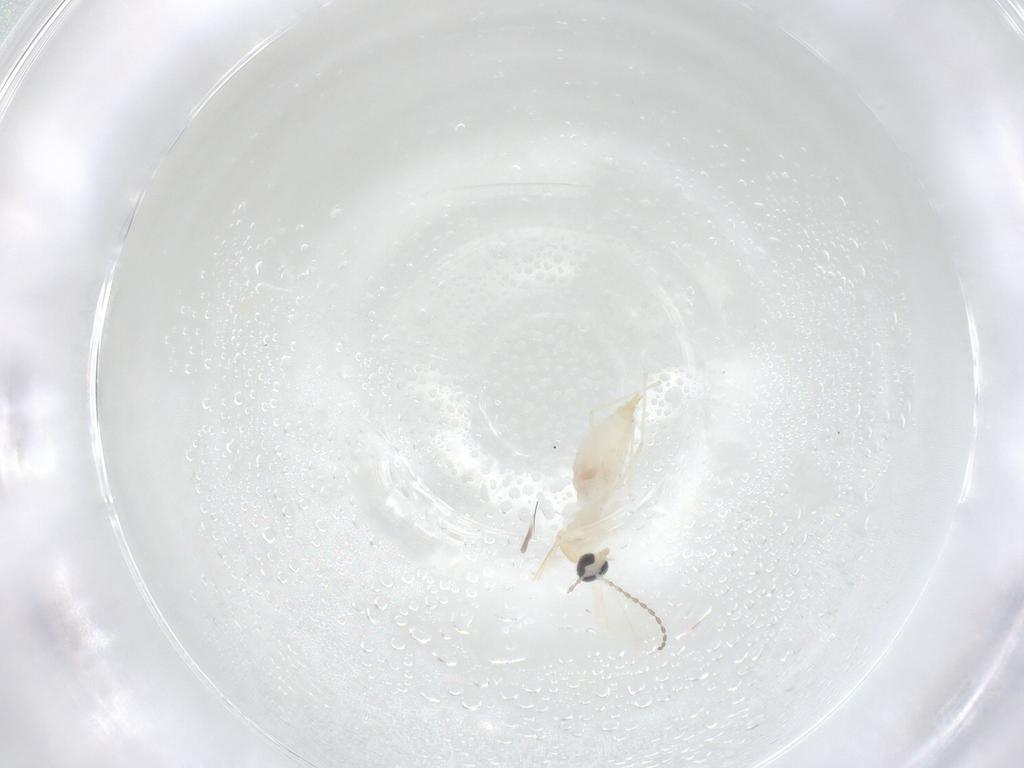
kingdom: Animalia
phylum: Arthropoda
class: Insecta
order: Diptera
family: Cecidomyiidae
